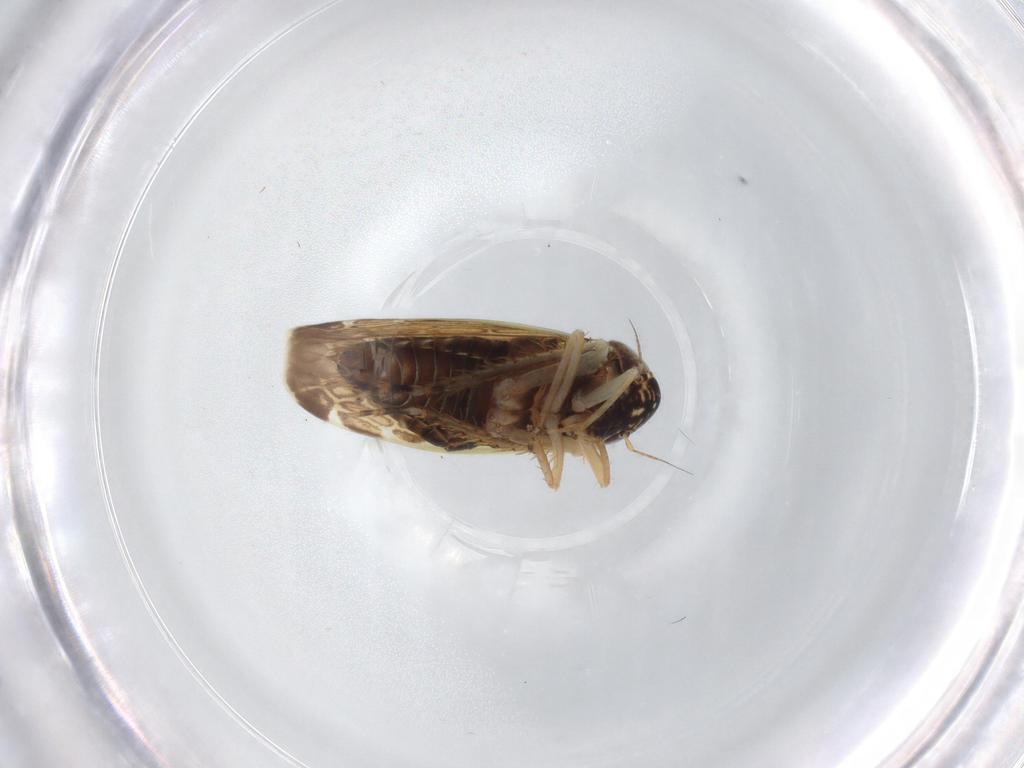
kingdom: Animalia
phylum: Arthropoda
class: Insecta
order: Hemiptera
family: Cicadellidae
